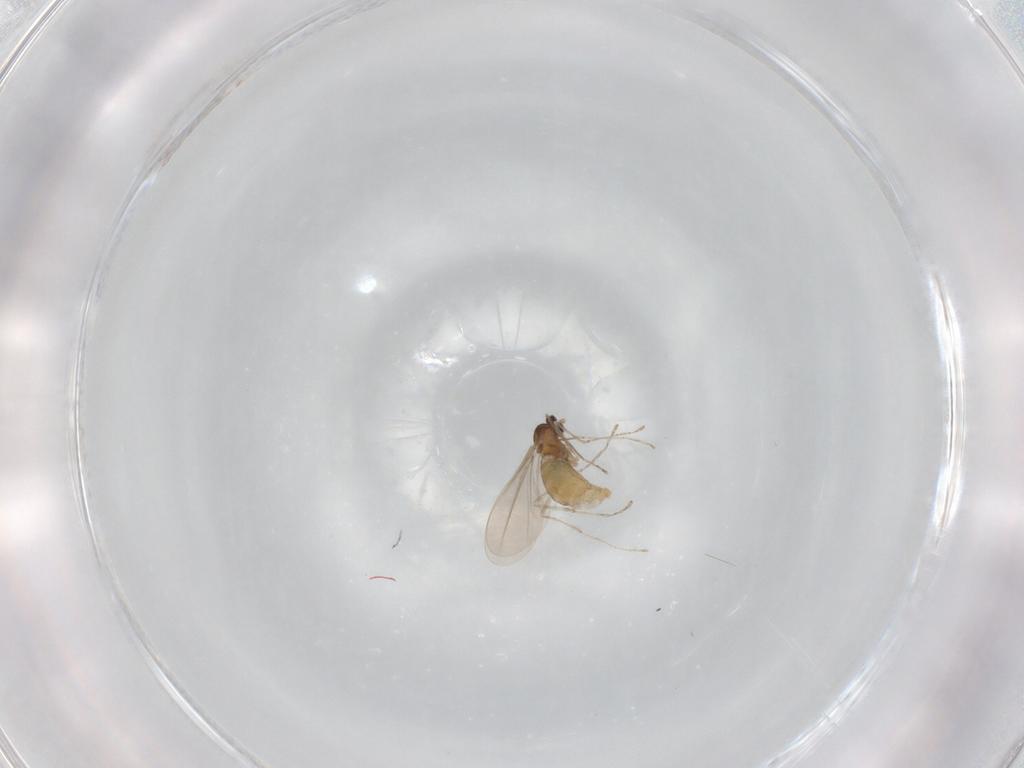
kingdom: Animalia
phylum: Arthropoda
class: Insecta
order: Diptera
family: Cecidomyiidae
